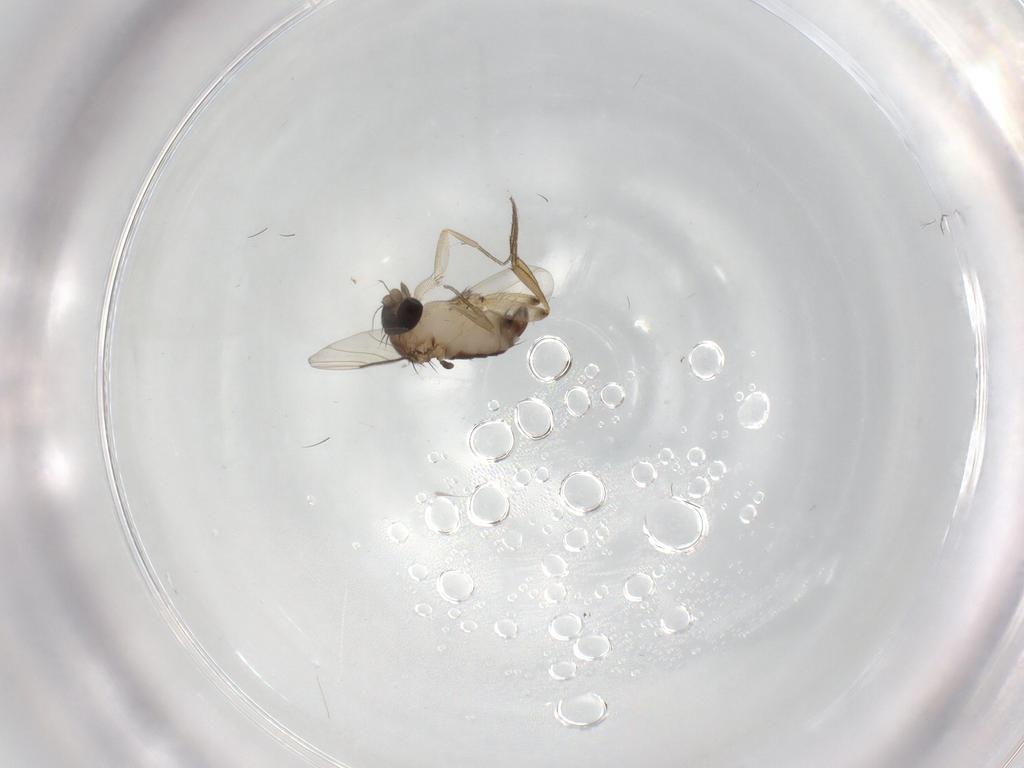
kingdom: Animalia
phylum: Arthropoda
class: Insecta
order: Diptera
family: Phoridae
